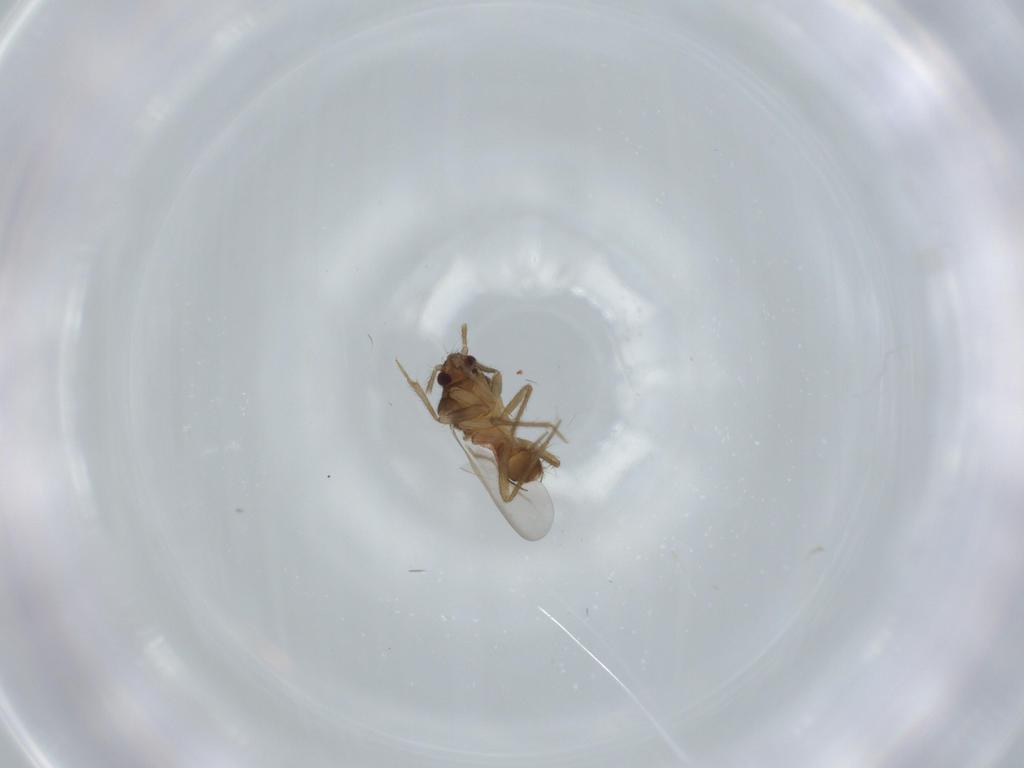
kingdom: Animalia
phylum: Arthropoda
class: Insecta
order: Hemiptera
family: Ceratocombidae
